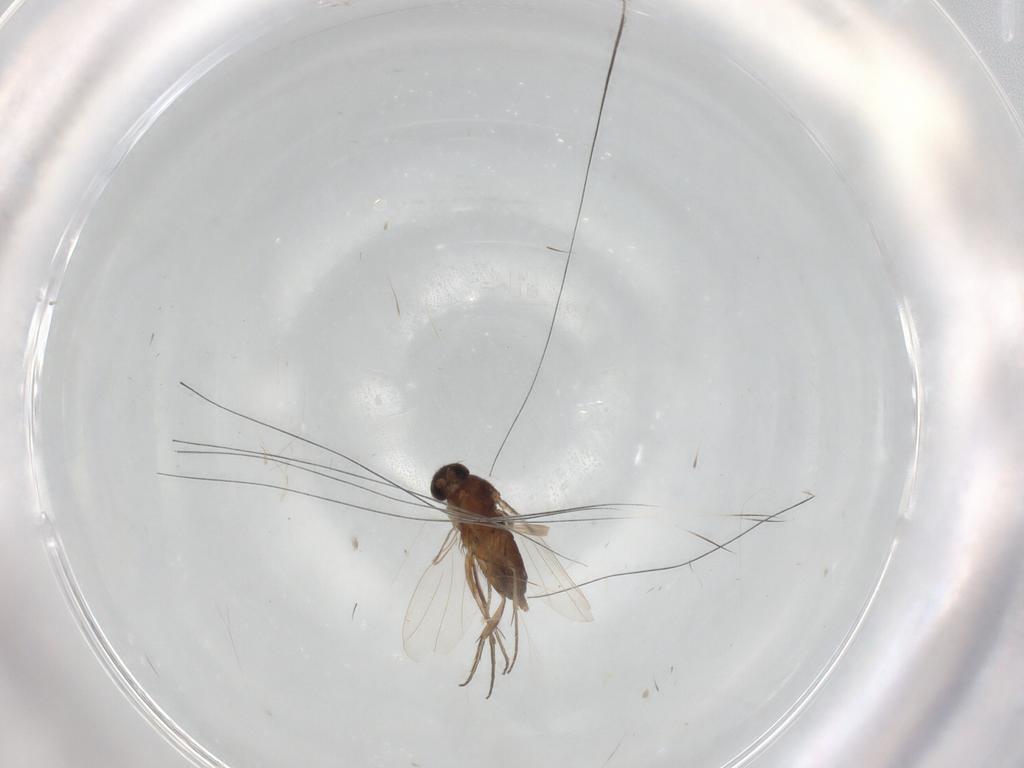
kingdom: Animalia
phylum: Arthropoda
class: Insecta
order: Diptera
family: Phoridae
